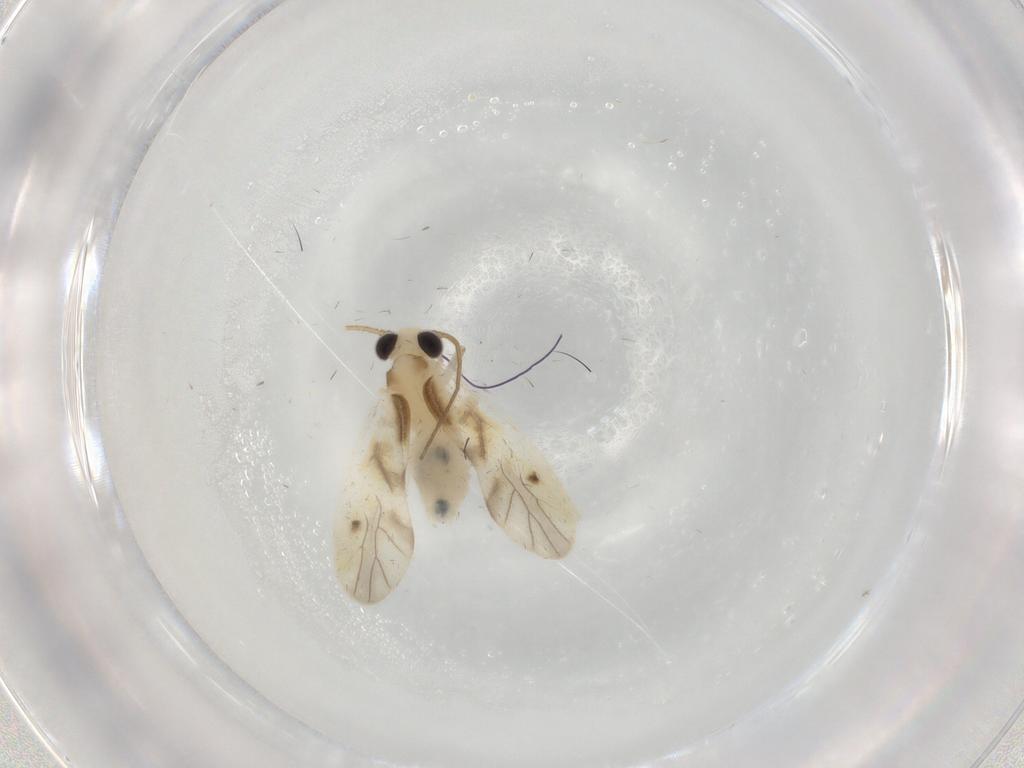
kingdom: Animalia
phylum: Arthropoda
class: Insecta
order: Psocodea
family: Caeciliusidae
